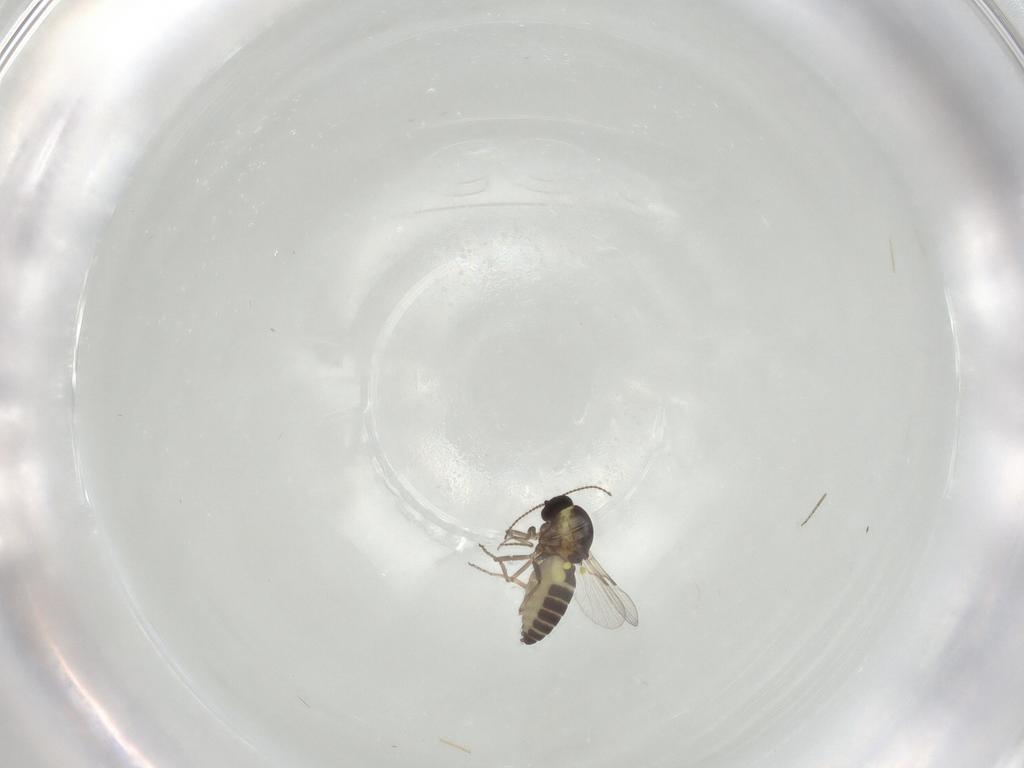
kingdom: Animalia
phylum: Arthropoda
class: Insecta
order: Diptera
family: Ceratopogonidae
